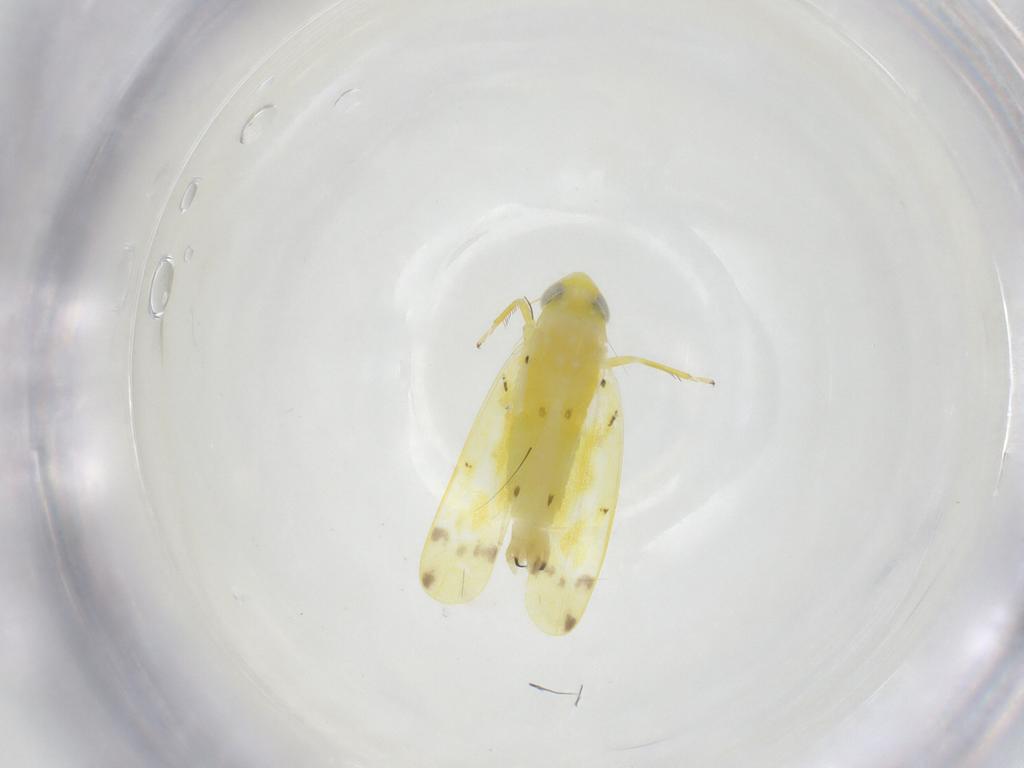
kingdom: Animalia
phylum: Arthropoda
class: Insecta
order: Hemiptera
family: Cicadellidae
